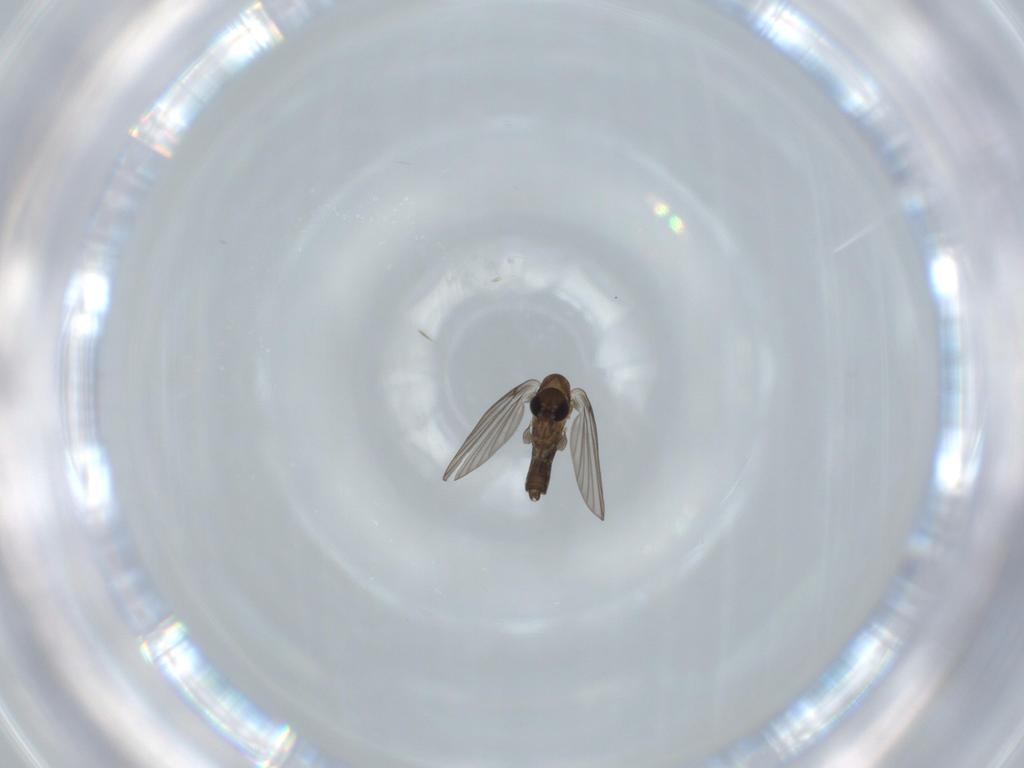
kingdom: Animalia
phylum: Arthropoda
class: Insecta
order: Diptera
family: Psychodidae
